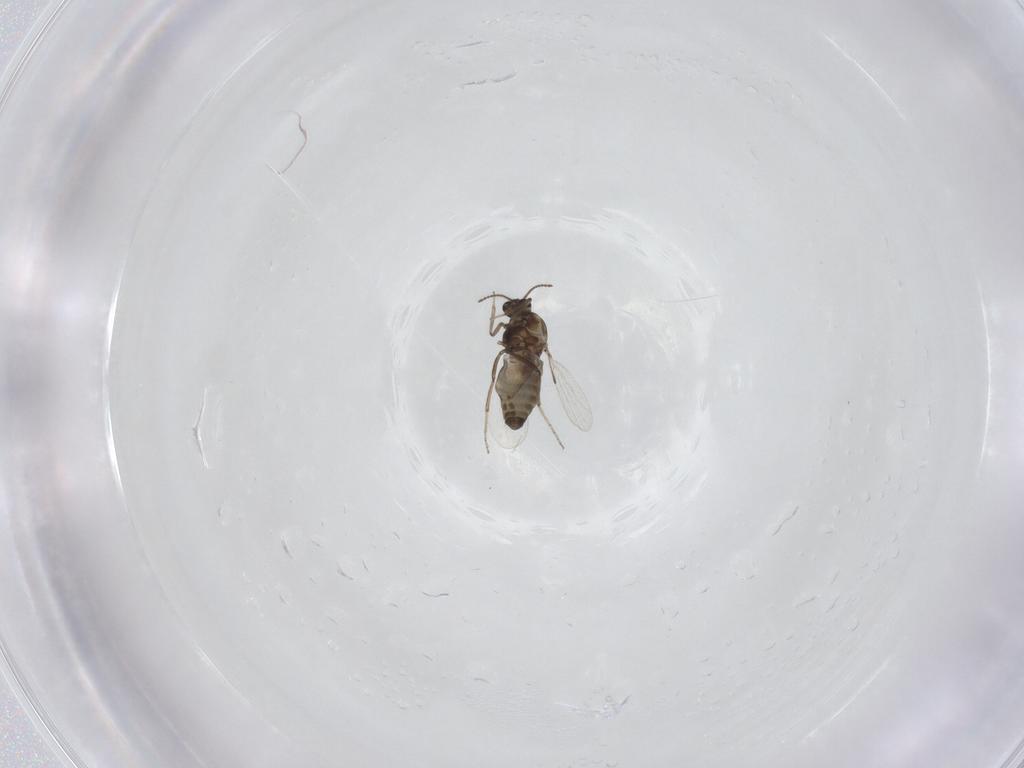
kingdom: Animalia
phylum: Arthropoda
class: Insecta
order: Diptera
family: Ceratopogonidae
